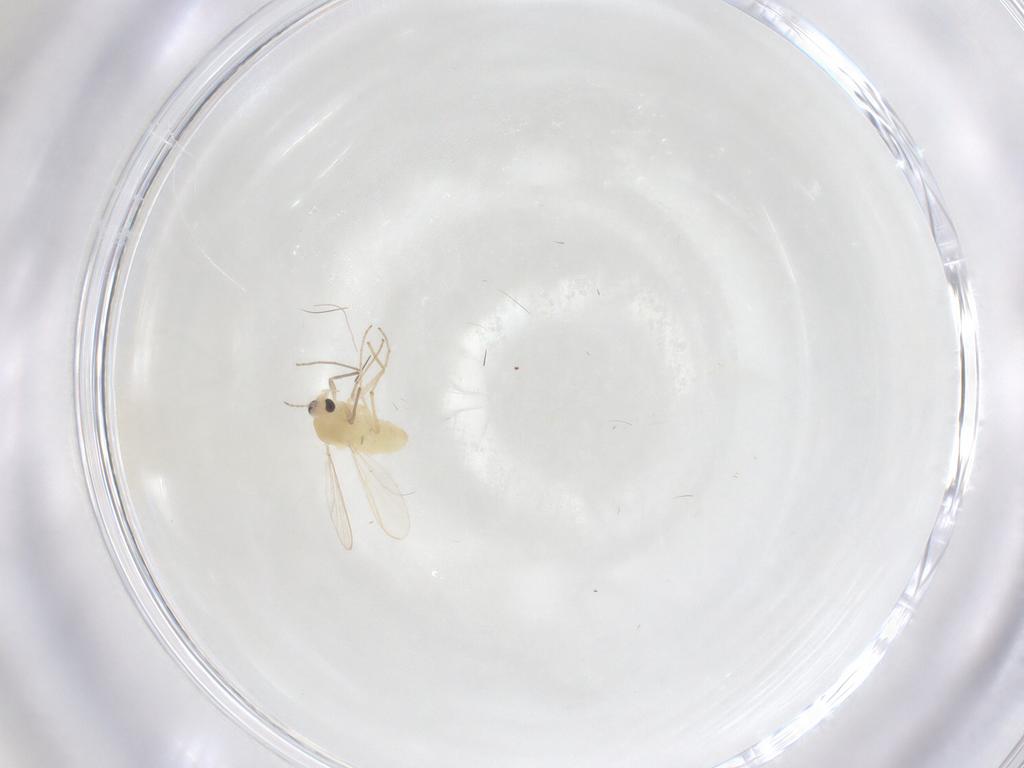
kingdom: Animalia
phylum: Arthropoda
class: Insecta
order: Diptera
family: Chironomidae
